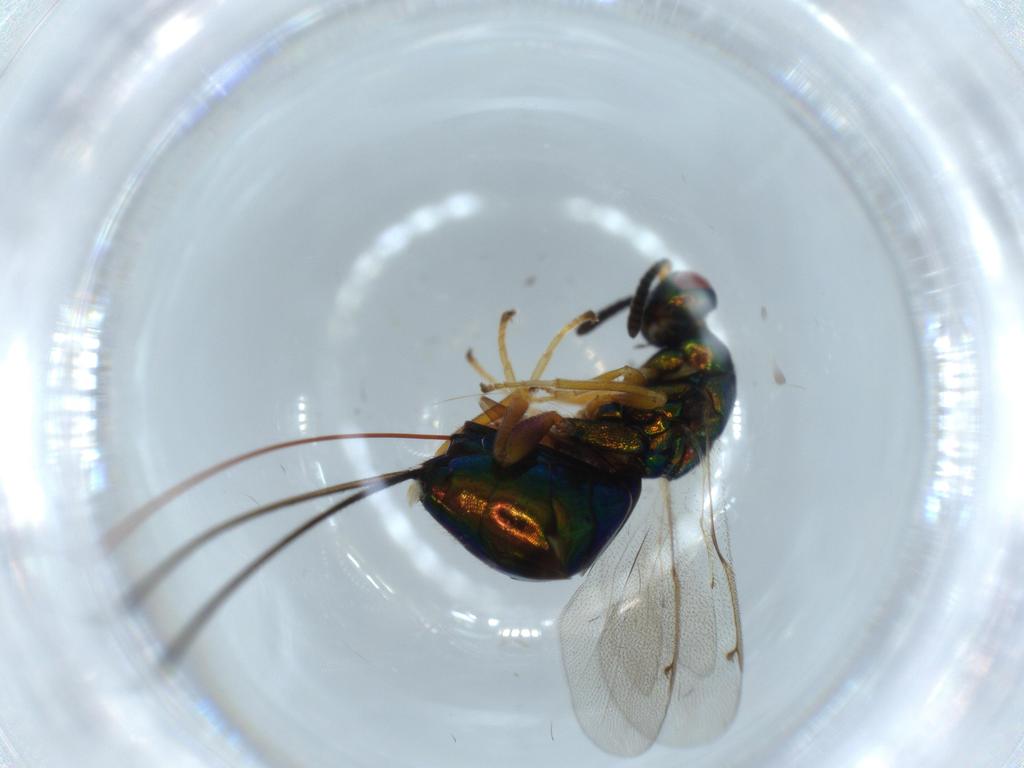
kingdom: Animalia
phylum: Arthropoda
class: Insecta
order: Hymenoptera
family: Torymidae
